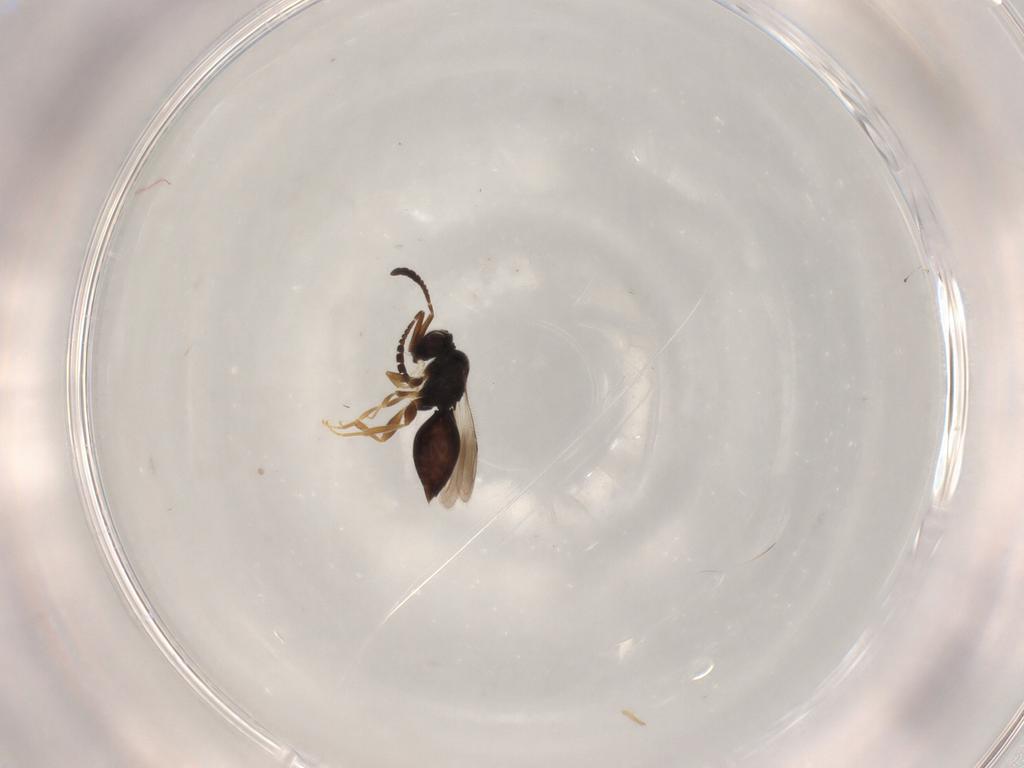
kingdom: Animalia
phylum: Arthropoda
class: Insecta
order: Hymenoptera
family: Ceraphronidae
